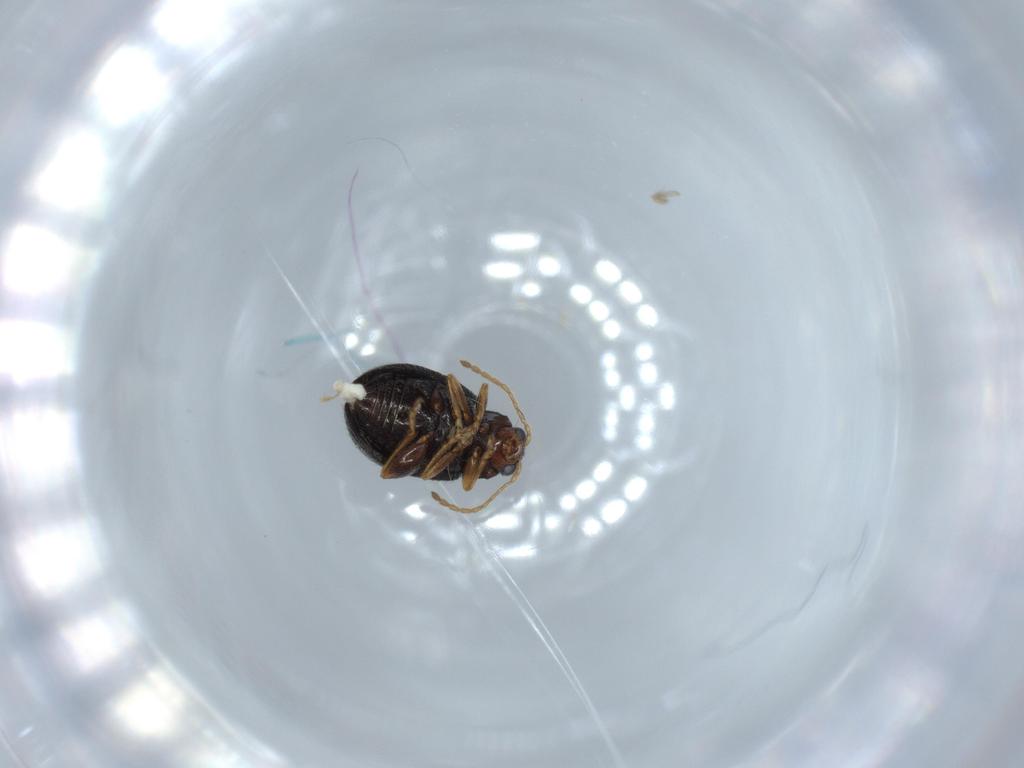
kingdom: Animalia
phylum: Arthropoda
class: Insecta
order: Coleoptera
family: Chrysomelidae
